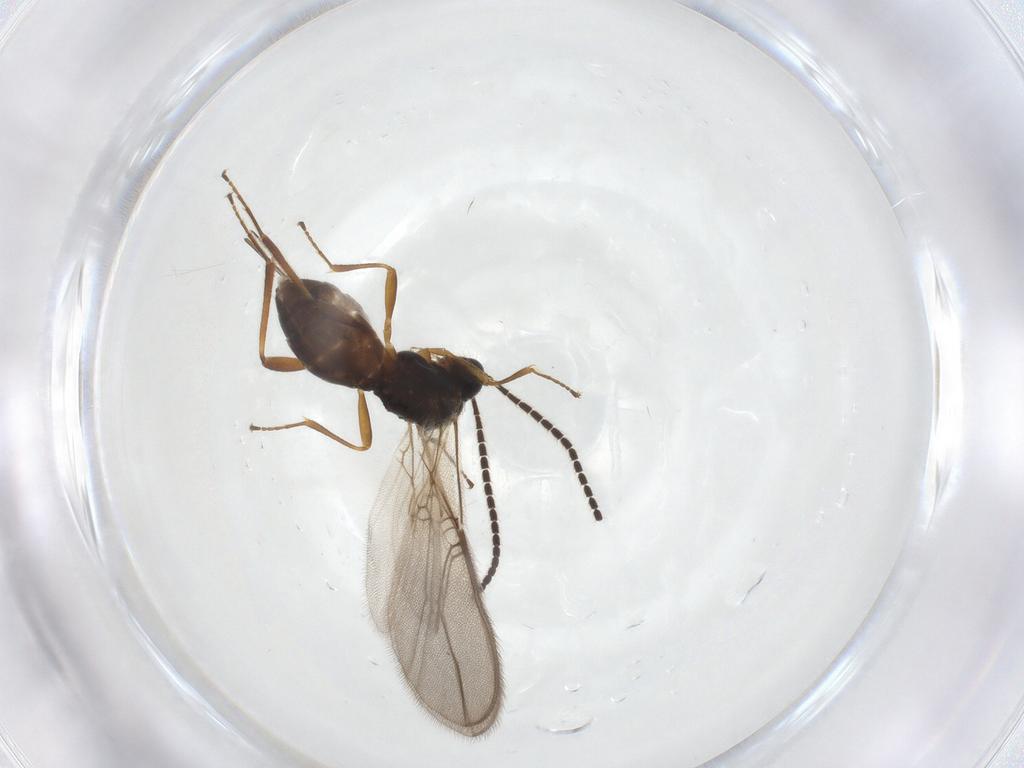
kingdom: Animalia
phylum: Arthropoda
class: Insecta
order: Hymenoptera
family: Braconidae
